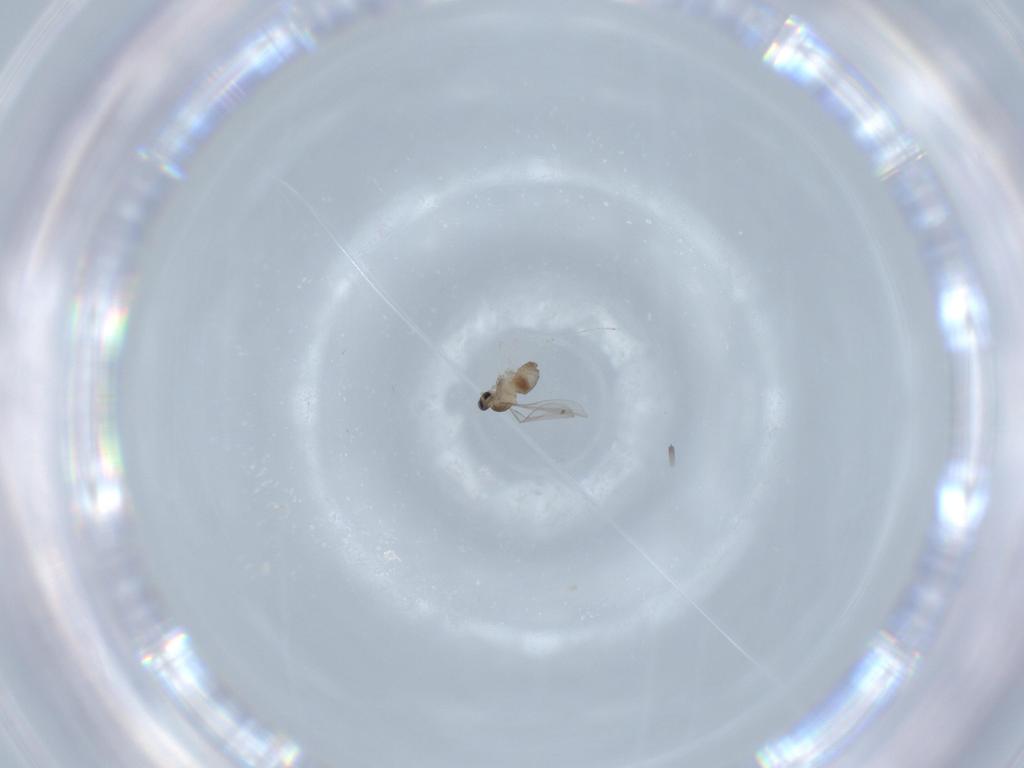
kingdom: Animalia
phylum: Arthropoda
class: Insecta
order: Diptera
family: Cecidomyiidae
